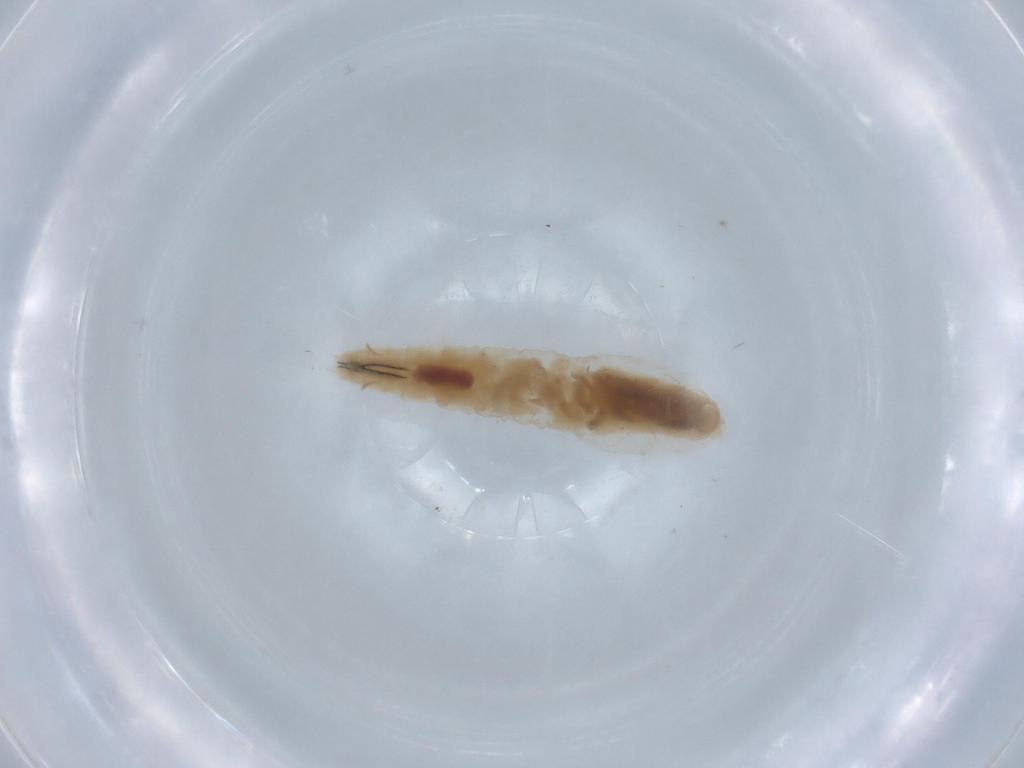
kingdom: Animalia
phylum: Arthropoda
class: Insecta
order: Diptera
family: Sarcophagidae
